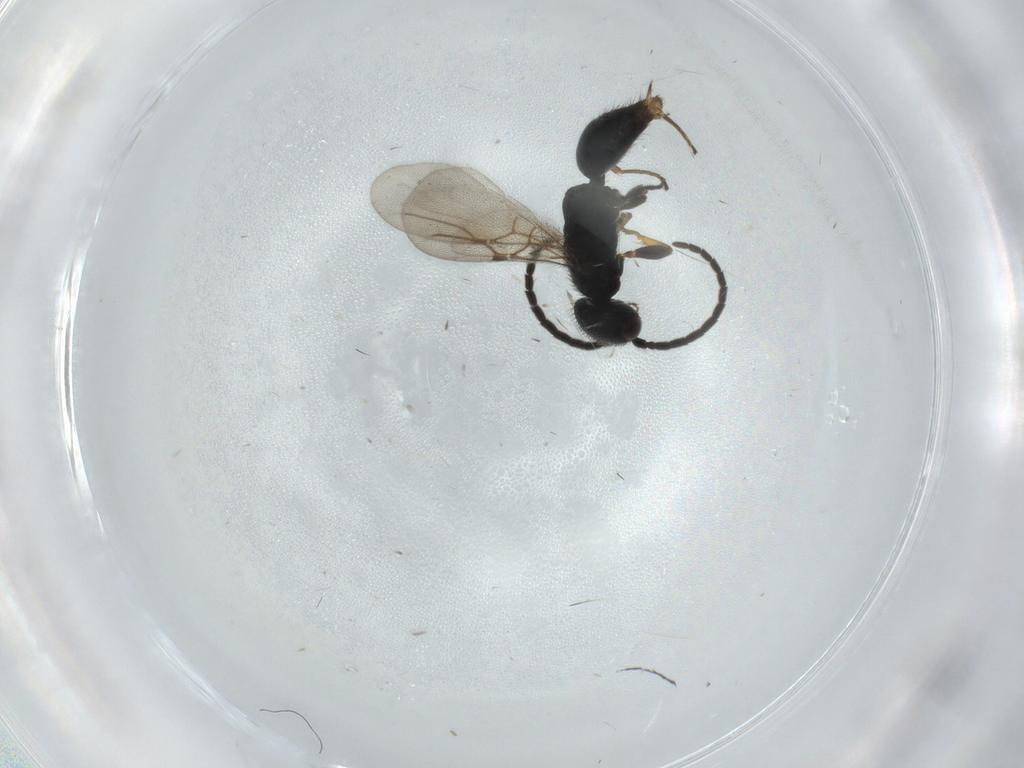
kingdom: Animalia
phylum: Arthropoda
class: Insecta
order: Hymenoptera
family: Bethylidae
